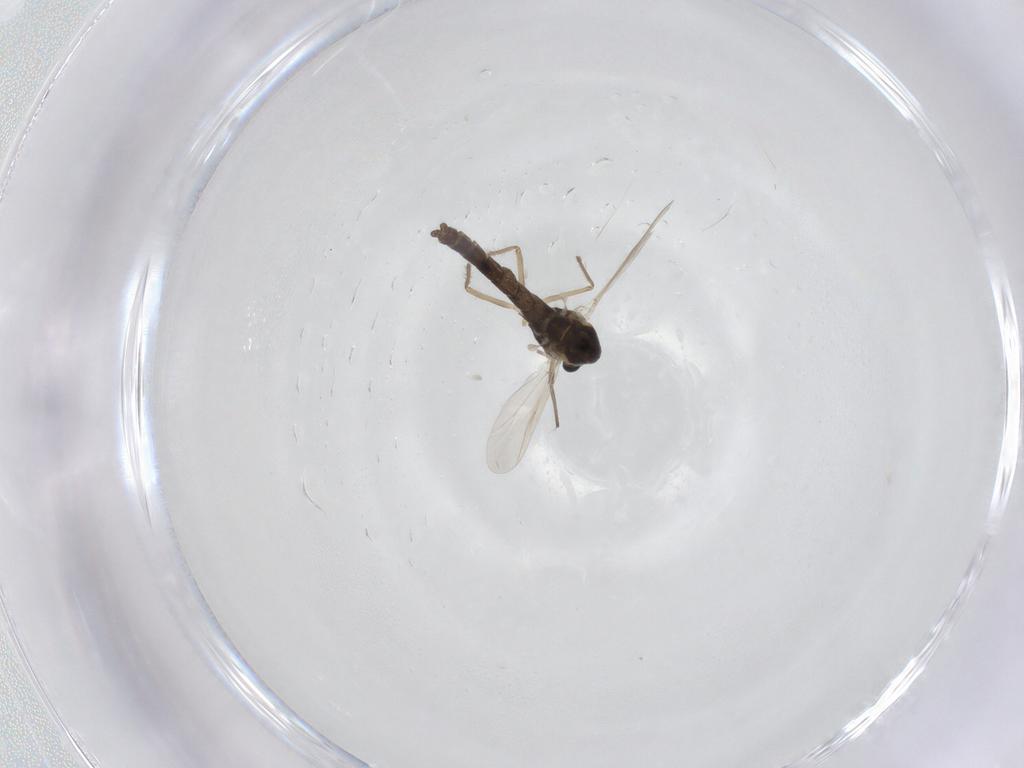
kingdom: Animalia
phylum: Arthropoda
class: Insecta
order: Diptera
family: Chironomidae
